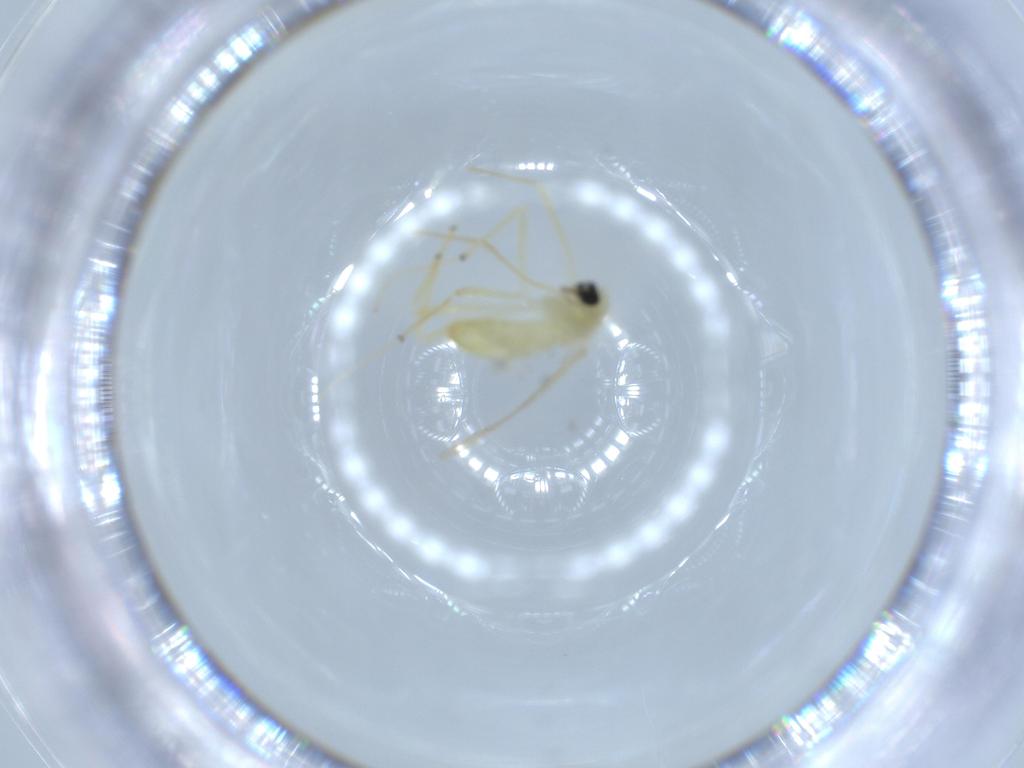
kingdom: Animalia
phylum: Arthropoda
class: Insecta
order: Diptera
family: Chironomidae
